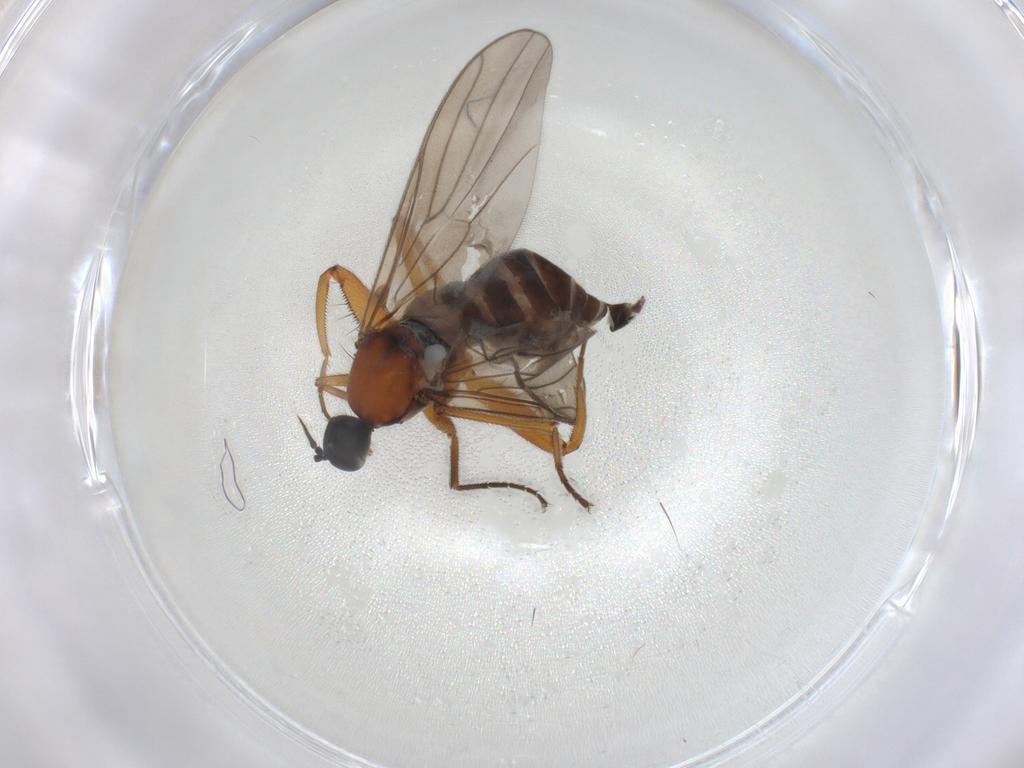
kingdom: Animalia
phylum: Arthropoda
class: Insecta
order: Diptera
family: Hybotidae
